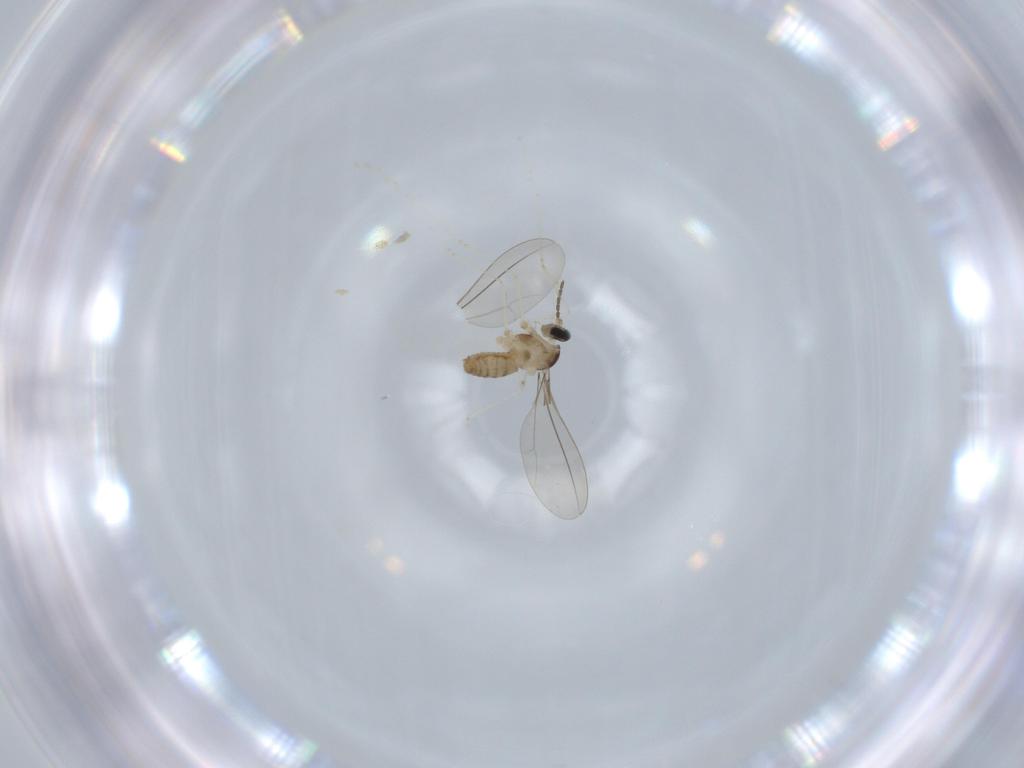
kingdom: Animalia
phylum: Arthropoda
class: Insecta
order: Diptera
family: Cecidomyiidae
